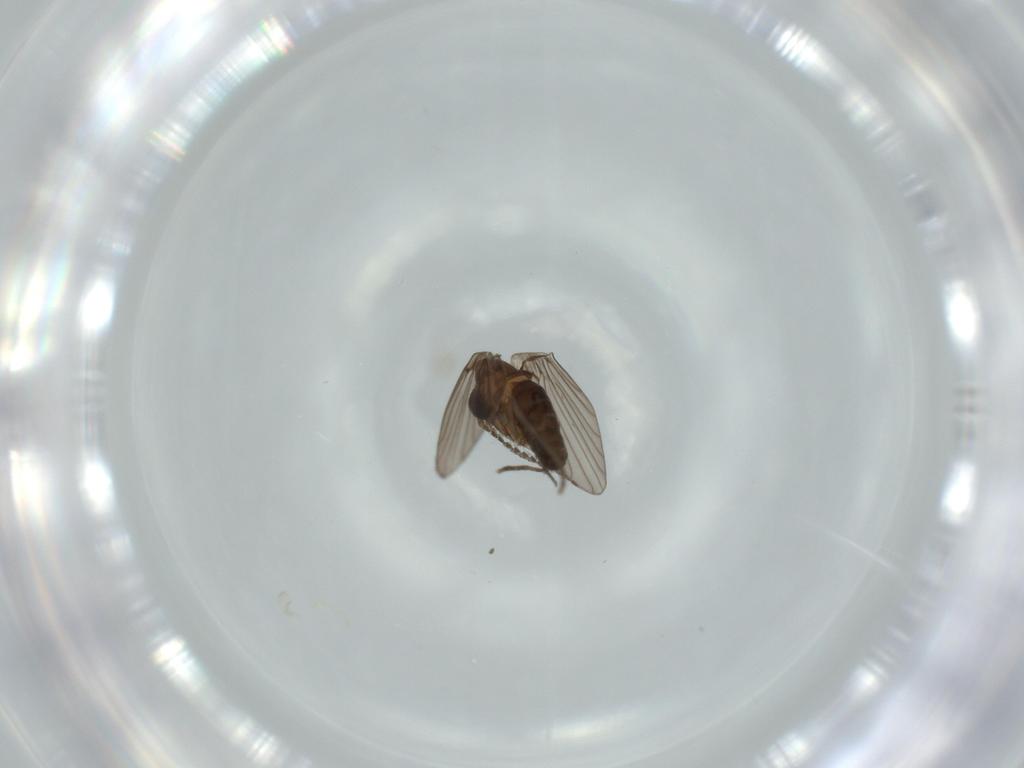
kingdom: Animalia
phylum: Arthropoda
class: Insecta
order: Diptera
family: Psychodidae
